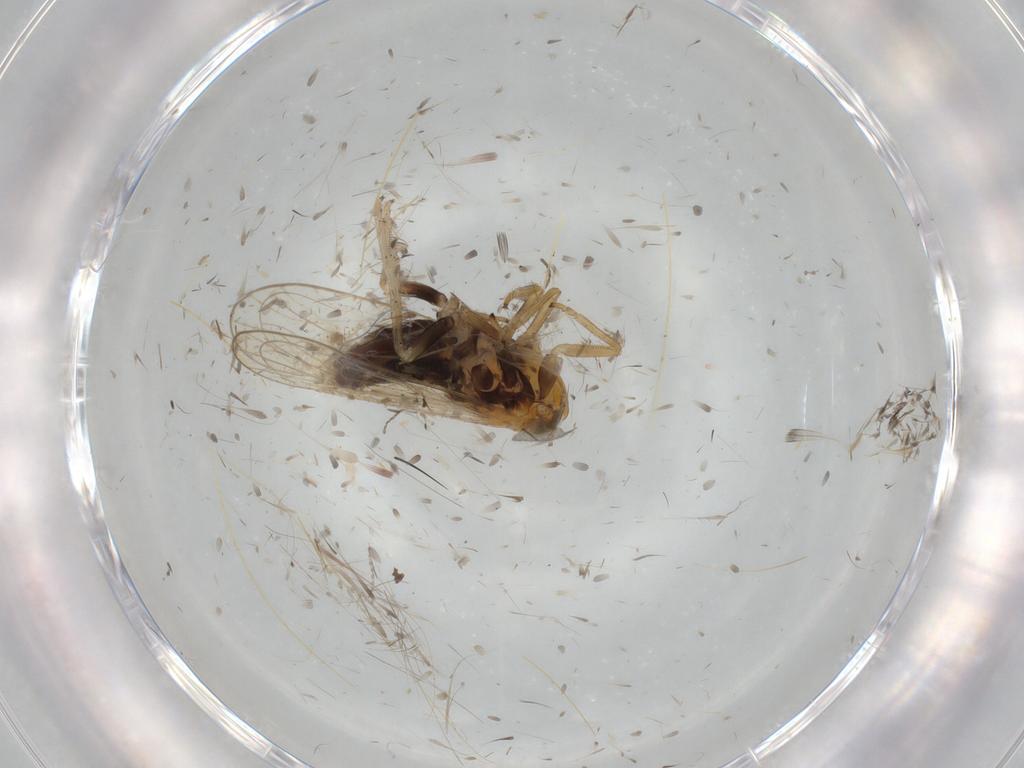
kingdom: Animalia
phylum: Arthropoda
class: Insecta
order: Hemiptera
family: Delphacidae
